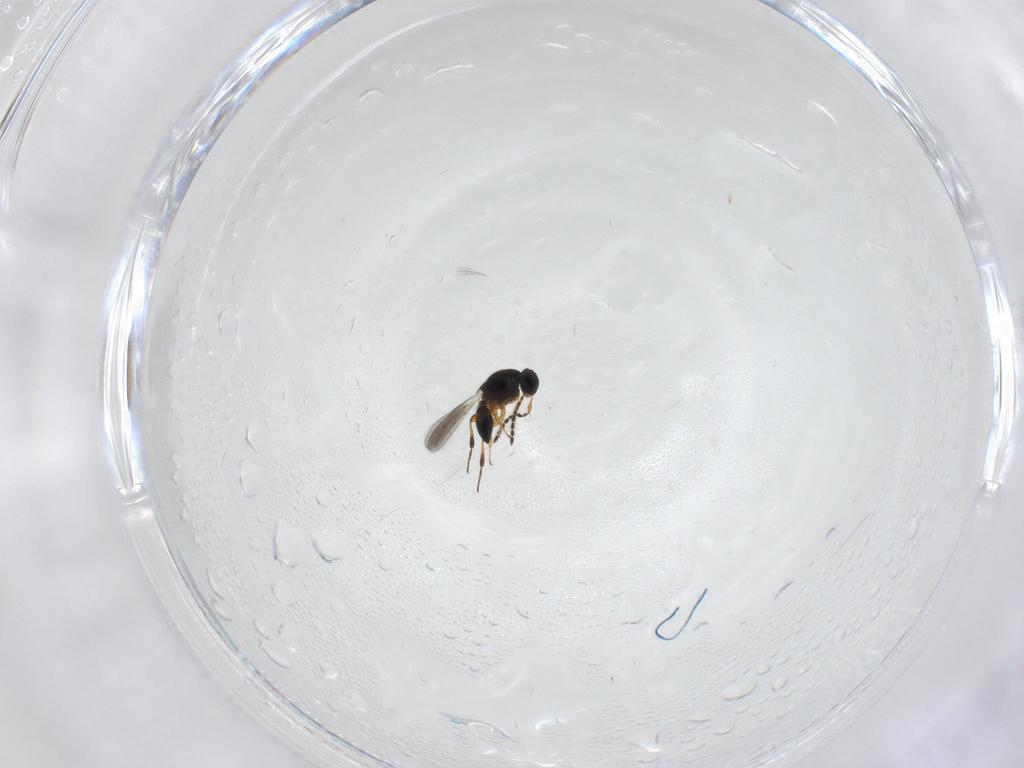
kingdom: Animalia
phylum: Arthropoda
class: Insecta
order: Hymenoptera
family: Platygastridae
